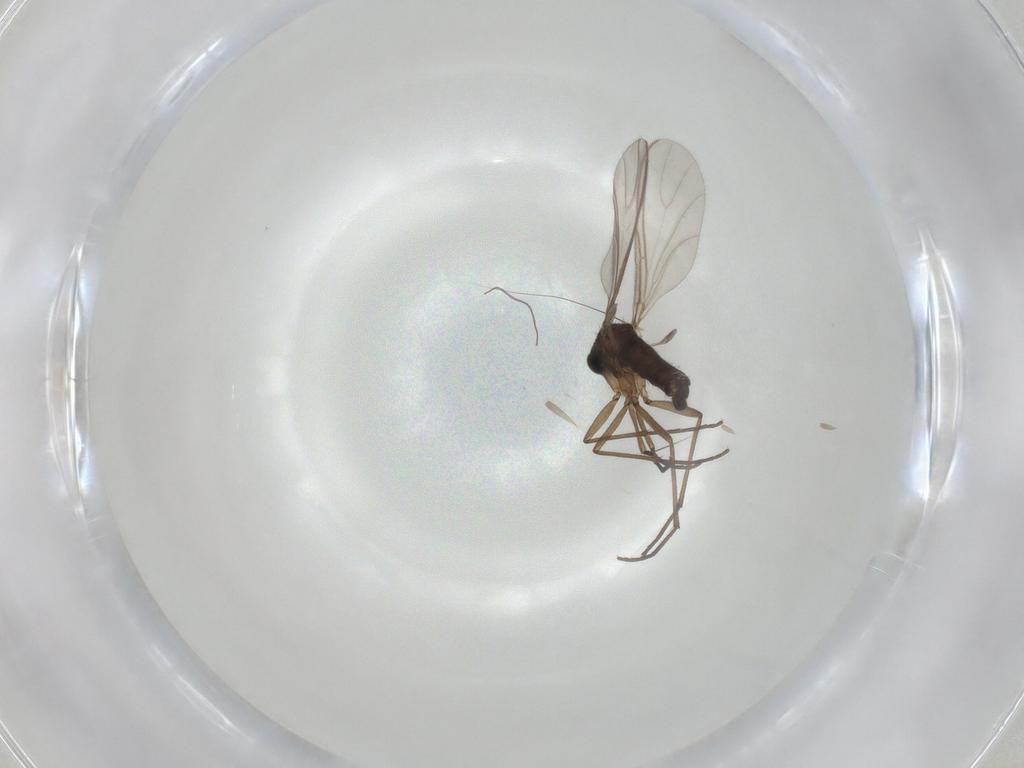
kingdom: Animalia
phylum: Arthropoda
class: Insecta
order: Diptera
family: Sciaridae
